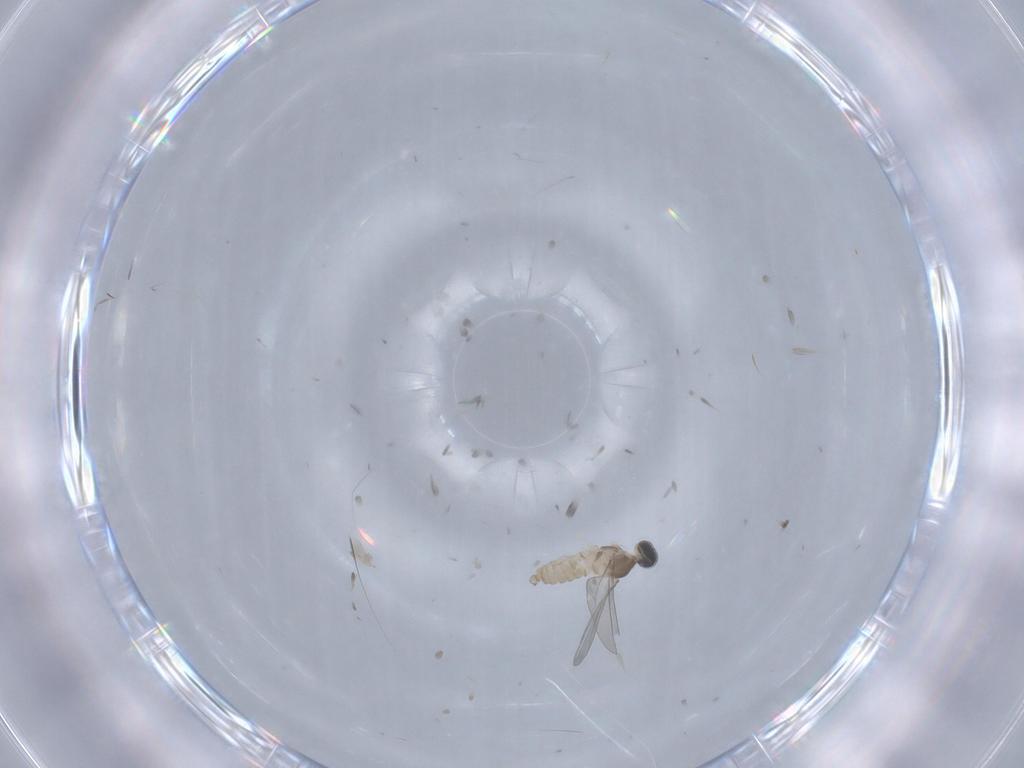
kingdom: Animalia
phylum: Arthropoda
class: Insecta
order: Diptera
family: Cecidomyiidae
